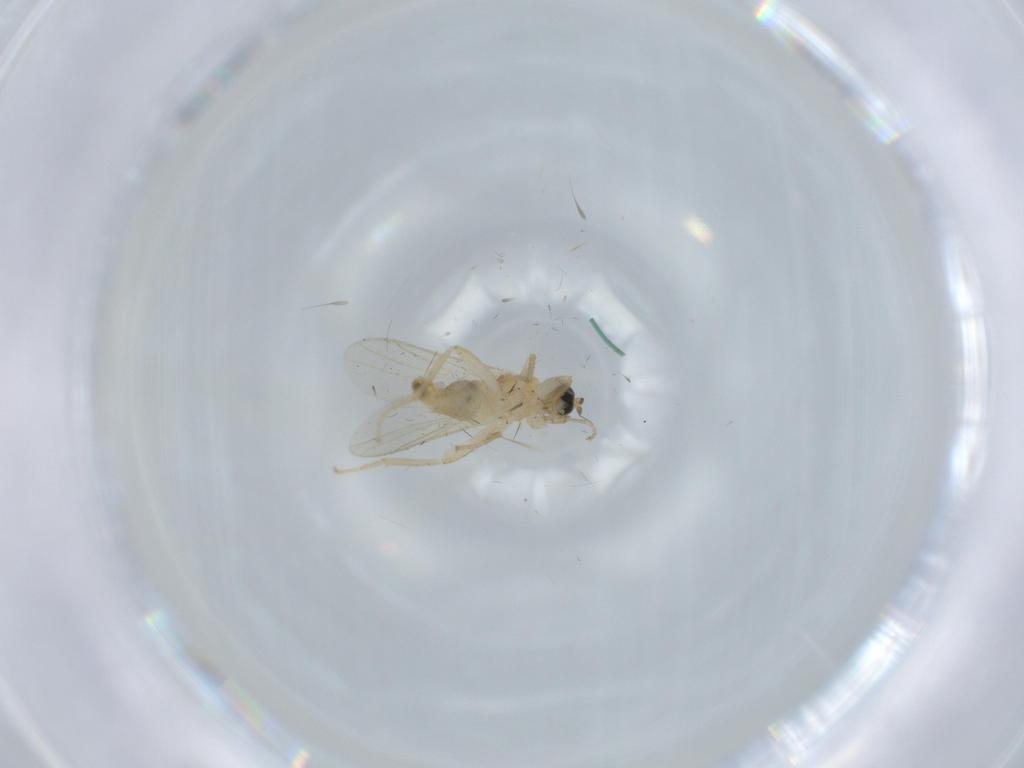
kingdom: Animalia
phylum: Arthropoda
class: Insecta
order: Diptera
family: Hybotidae
